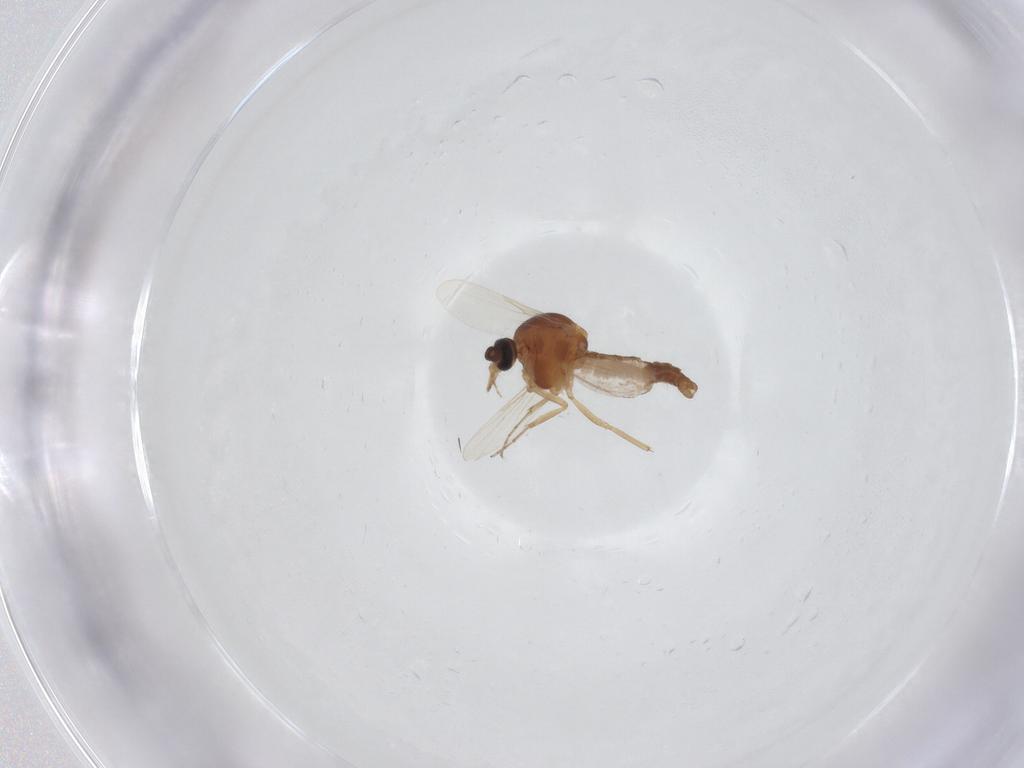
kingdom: Animalia
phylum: Arthropoda
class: Insecta
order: Diptera
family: Ceratopogonidae
